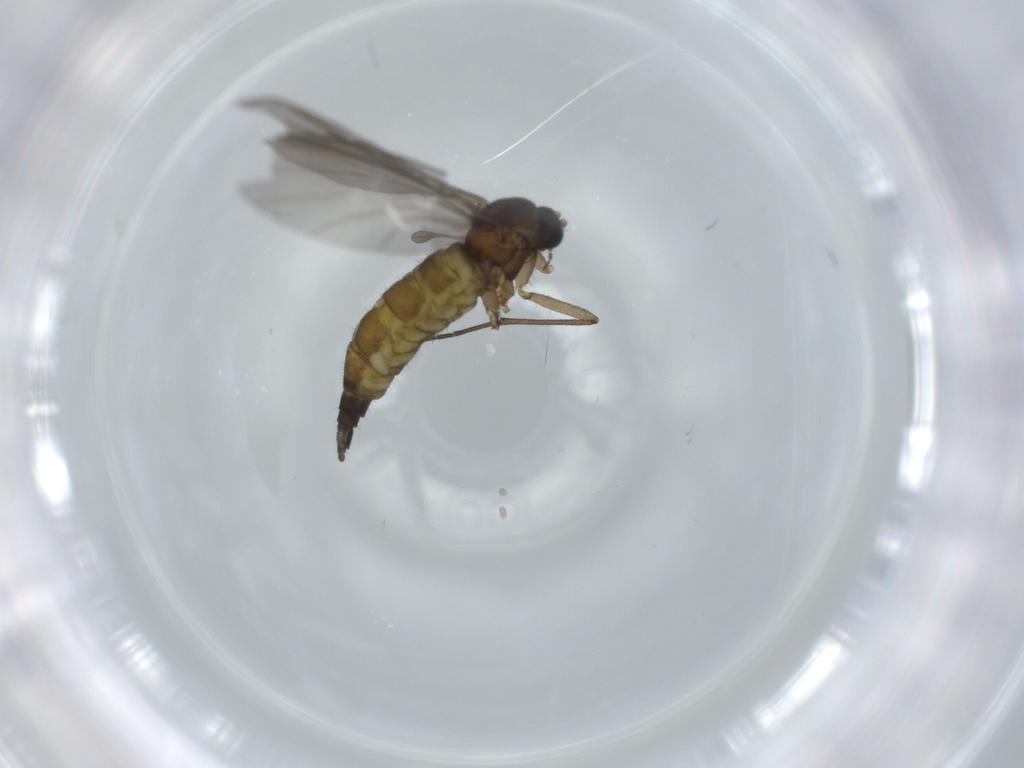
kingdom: Animalia
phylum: Arthropoda
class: Insecta
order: Diptera
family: Sciaridae
